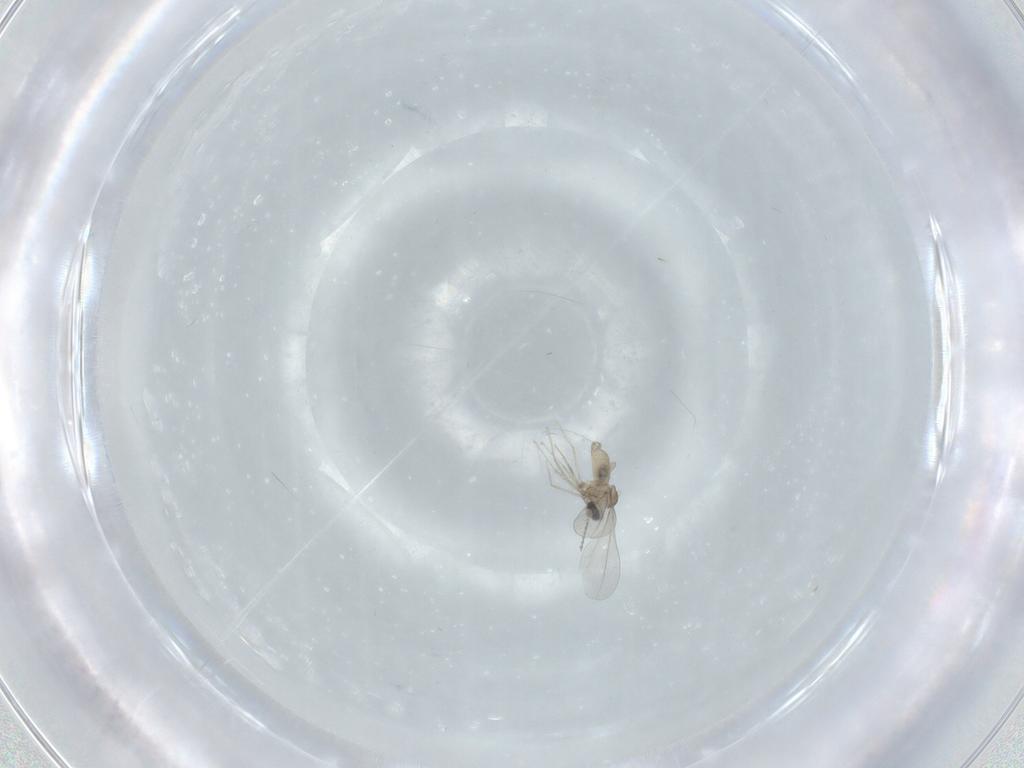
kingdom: Animalia
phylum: Arthropoda
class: Insecta
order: Diptera
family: Cecidomyiidae
